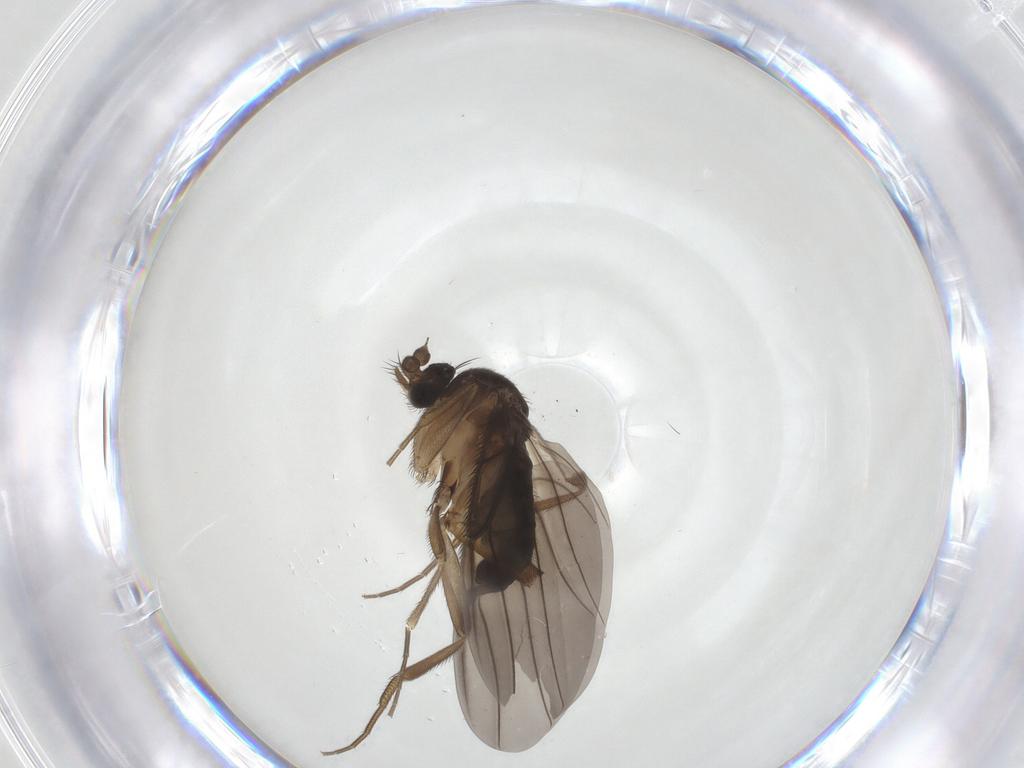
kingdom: Animalia
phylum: Arthropoda
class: Insecta
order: Diptera
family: Phoridae
